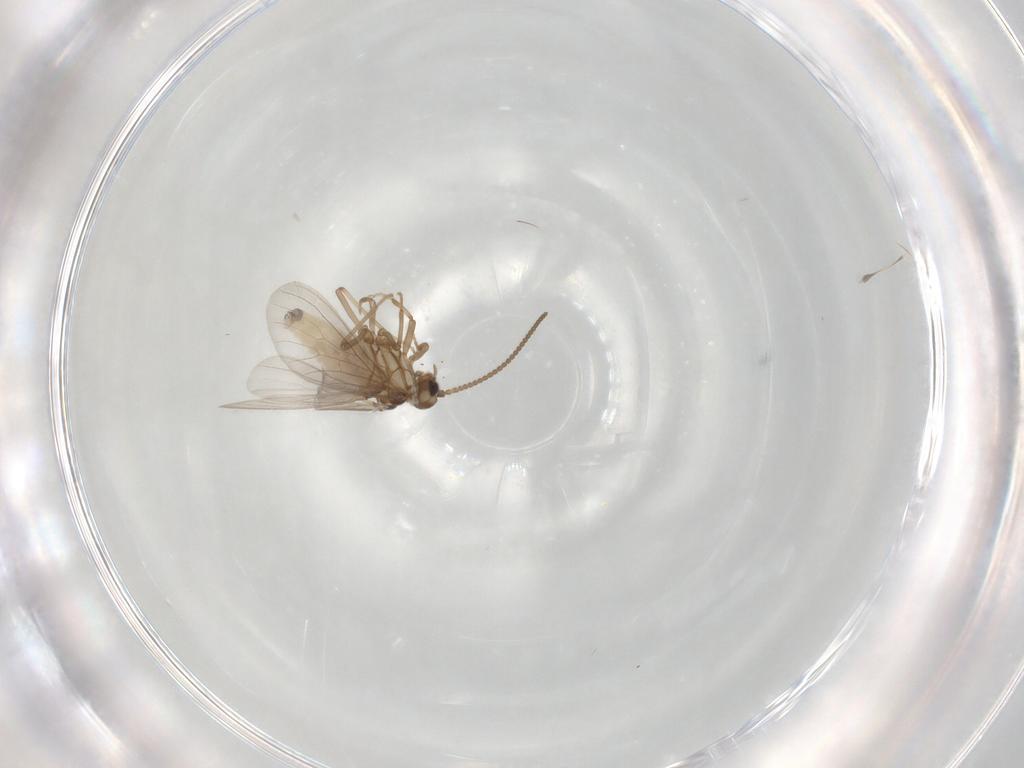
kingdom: Animalia
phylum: Arthropoda
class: Insecta
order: Neuroptera
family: Coniopterygidae
